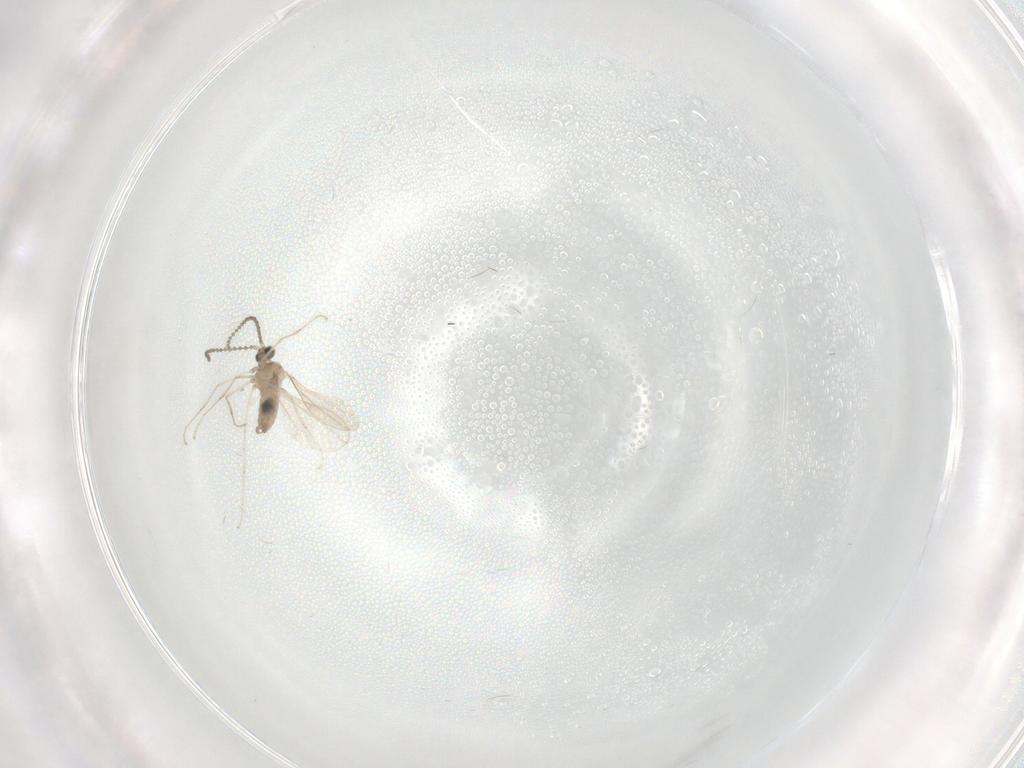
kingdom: Animalia
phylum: Arthropoda
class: Insecta
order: Diptera
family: Cecidomyiidae
